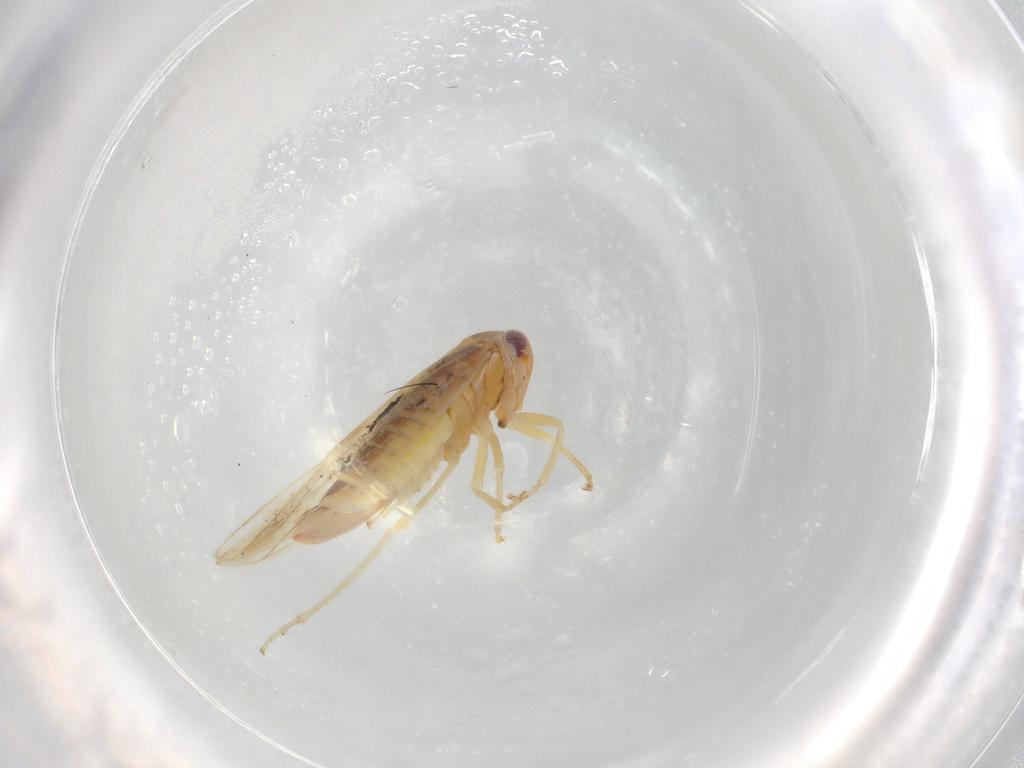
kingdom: Animalia
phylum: Arthropoda
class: Insecta
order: Hemiptera
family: Cicadellidae
